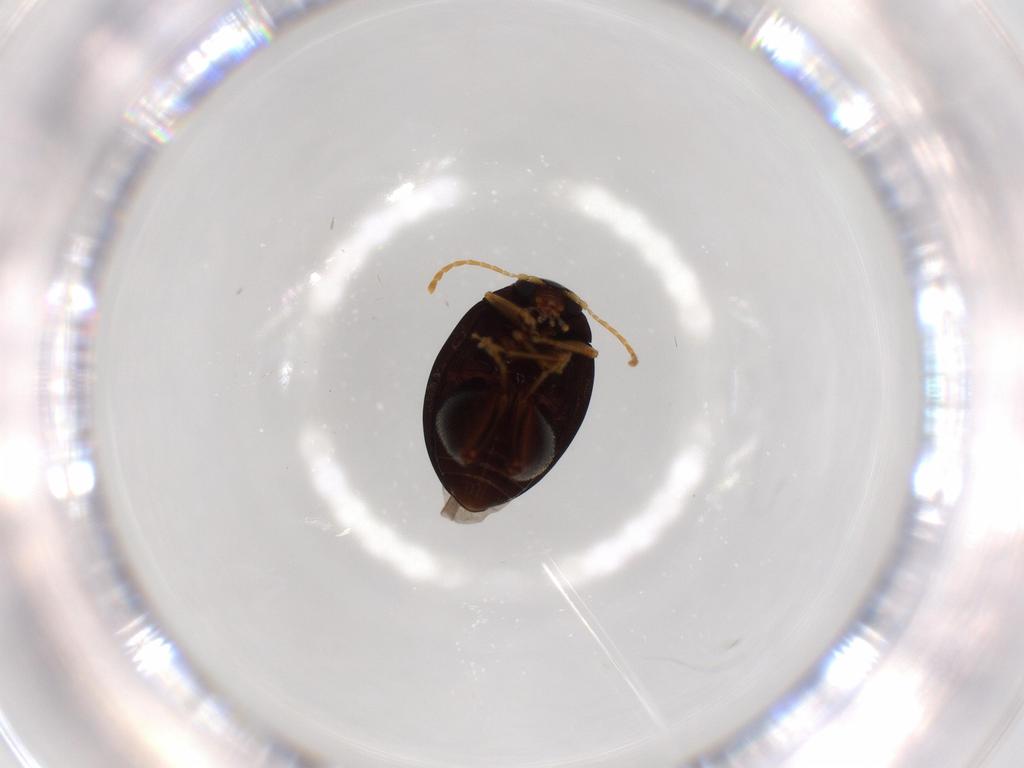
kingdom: Animalia
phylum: Arthropoda
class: Insecta
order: Coleoptera
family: Chrysomelidae
